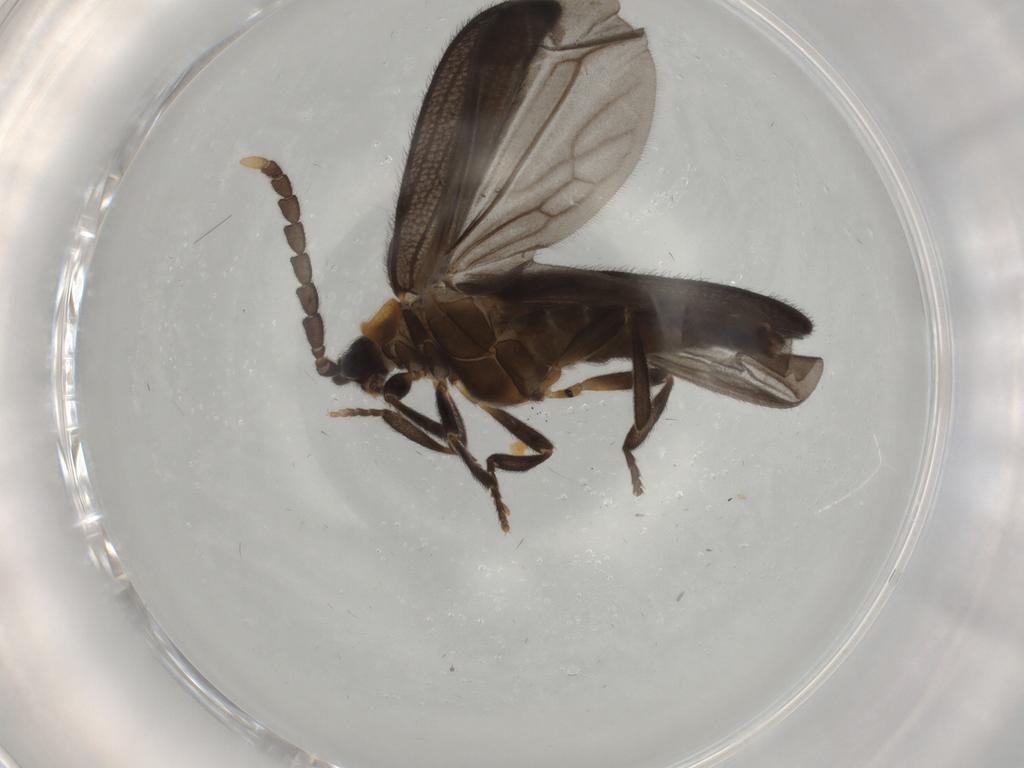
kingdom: Animalia
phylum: Arthropoda
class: Insecta
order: Coleoptera
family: Lycidae
